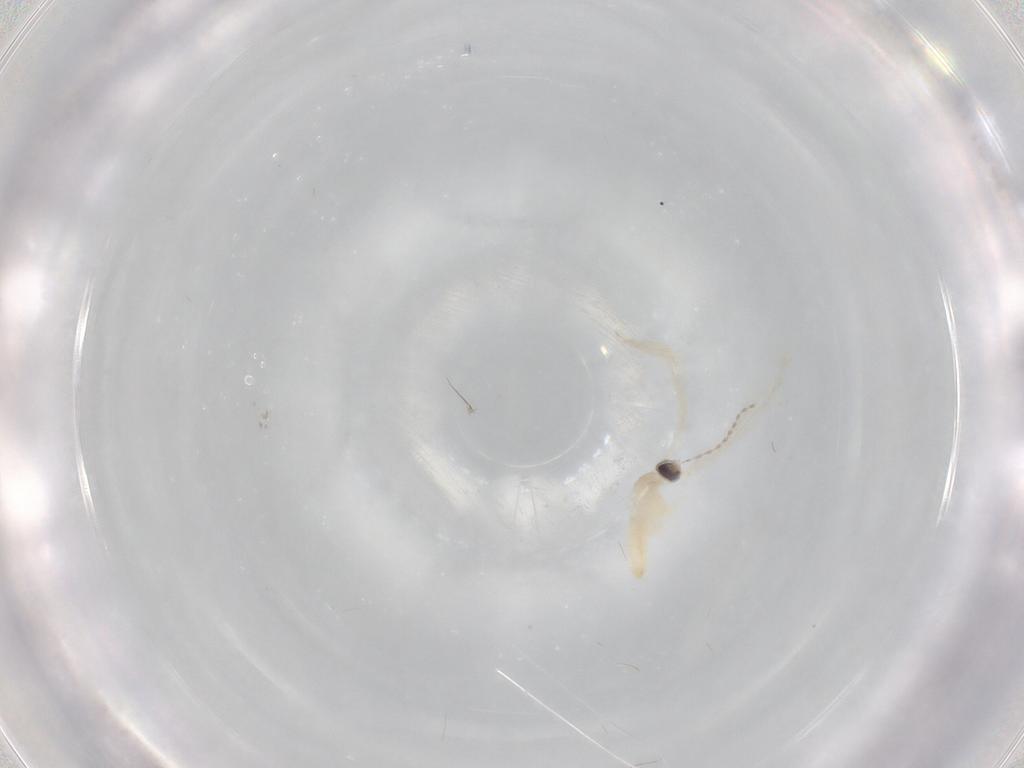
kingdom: Animalia
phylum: Arthropoda
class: Insecta
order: Diptera
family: Cecidomyiidae
